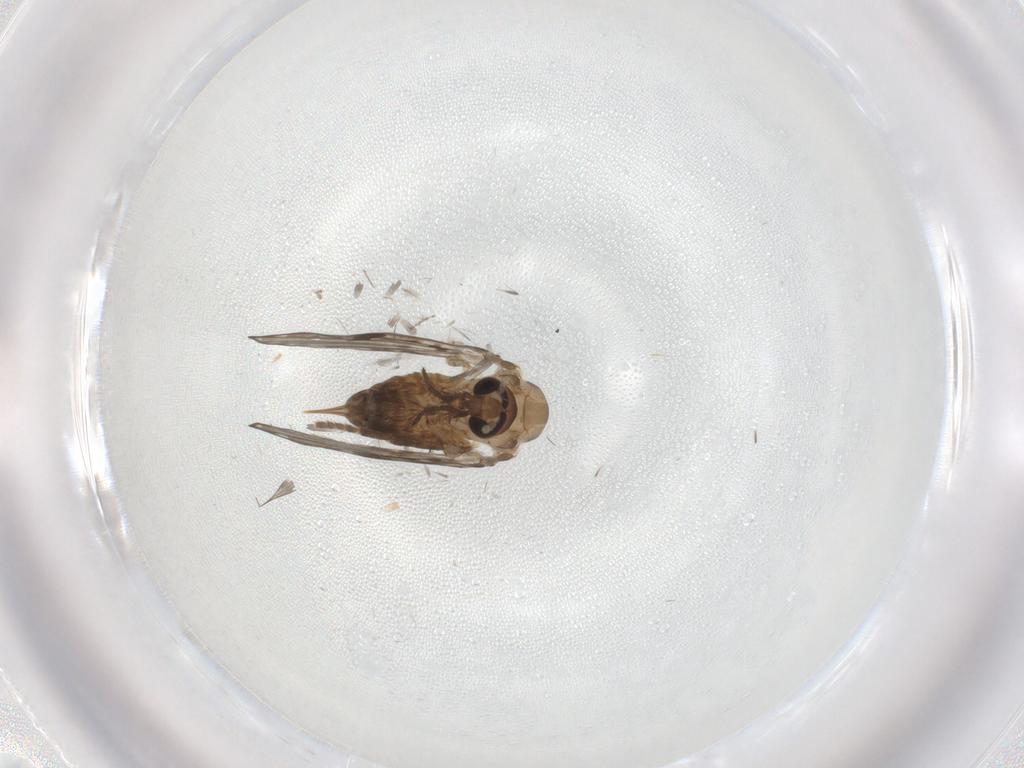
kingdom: Animalia
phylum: Arthropoda
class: Insecta
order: Diptera
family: Psychodidae
